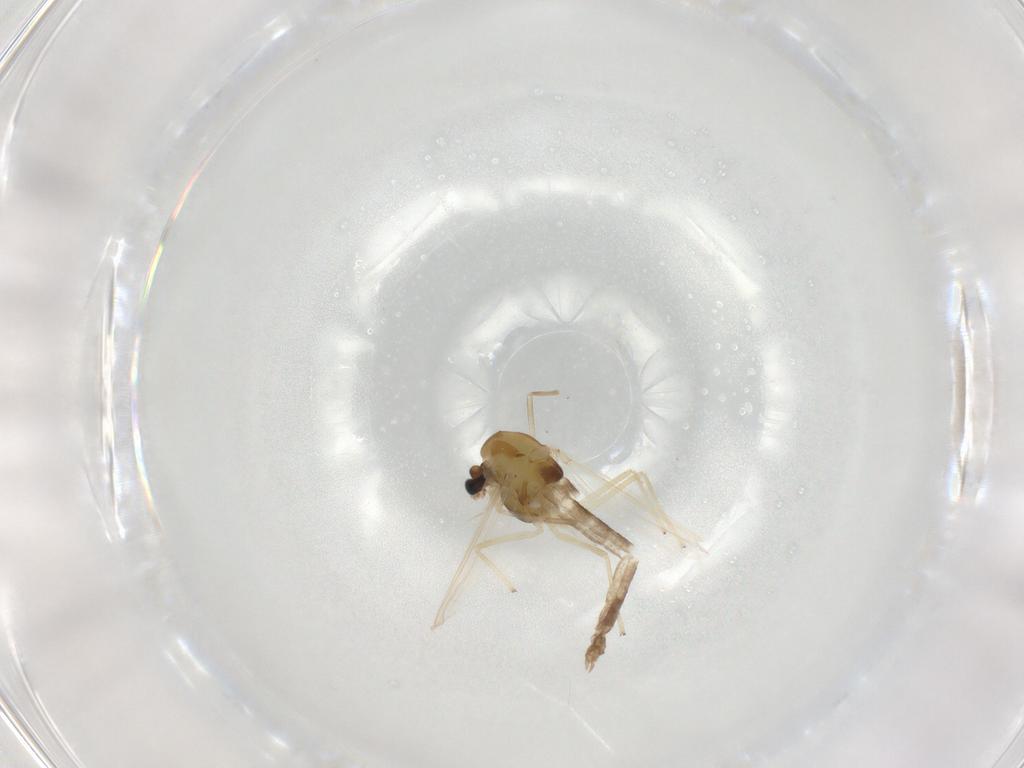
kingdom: Animalia
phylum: Arthropoda
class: Insecta
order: Diptera
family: Chironomidae
